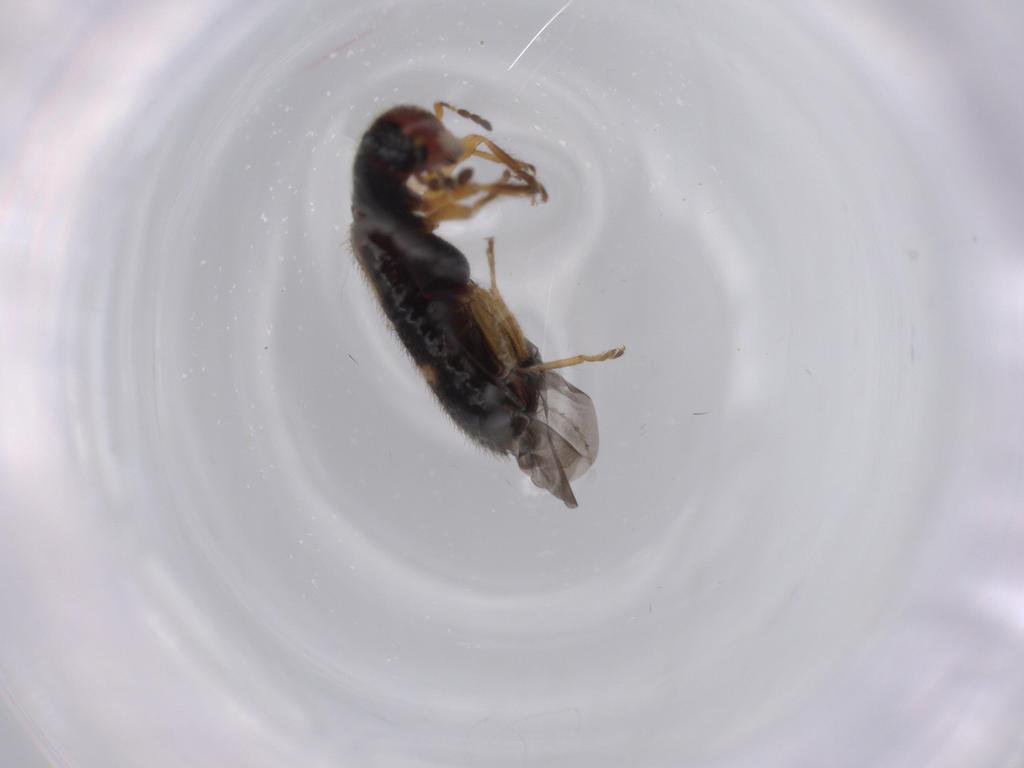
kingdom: Animalia
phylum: Arthropoda
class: Insecta
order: Coleoptera
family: Cleridae
